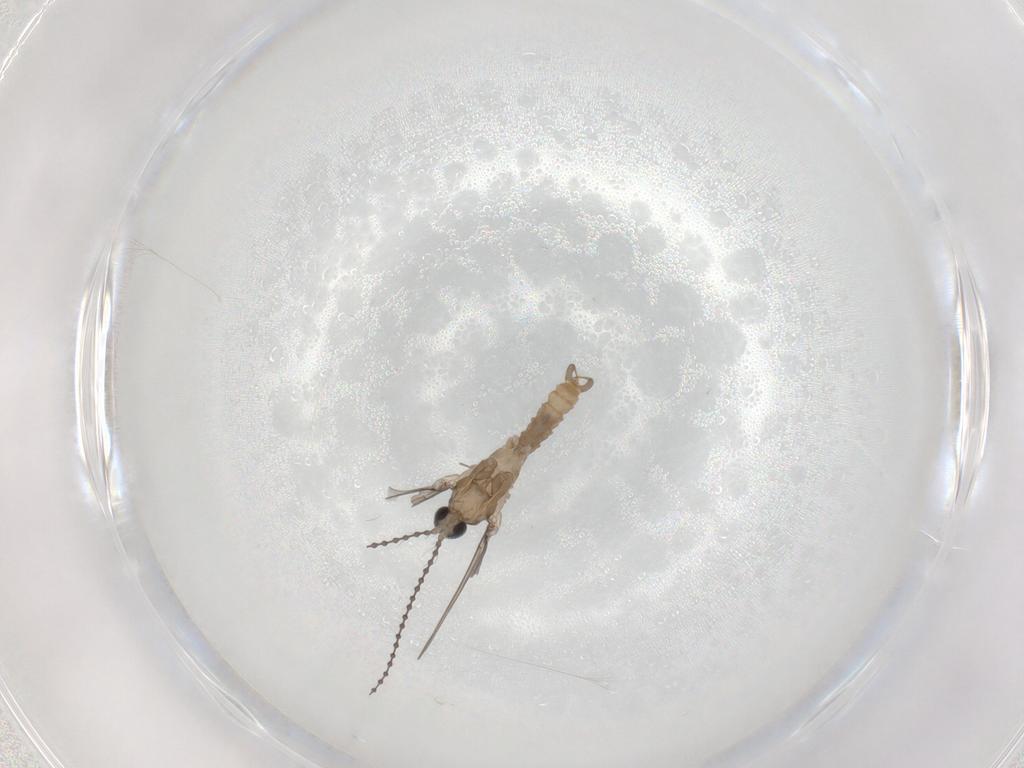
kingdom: Animalia
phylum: Arthropoda
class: Insecta
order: Diptera
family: Cecidomyiidae
